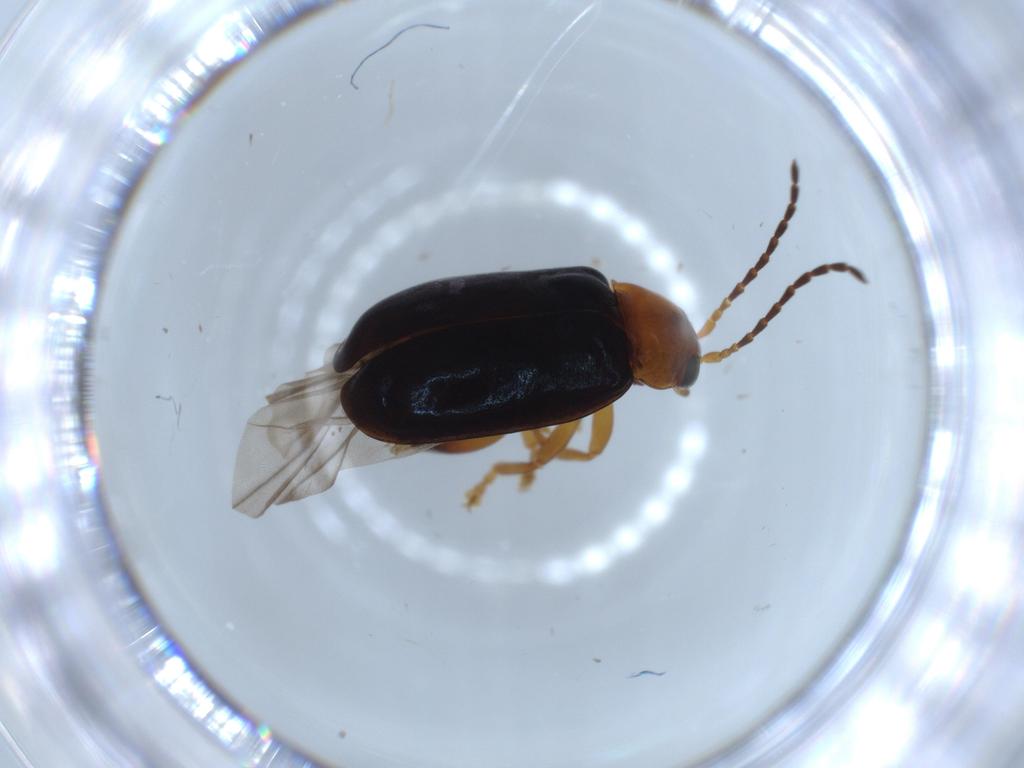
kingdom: Animalia
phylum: Arthropoda
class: Insecta
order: Coleoptera
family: Chrysomelidae
